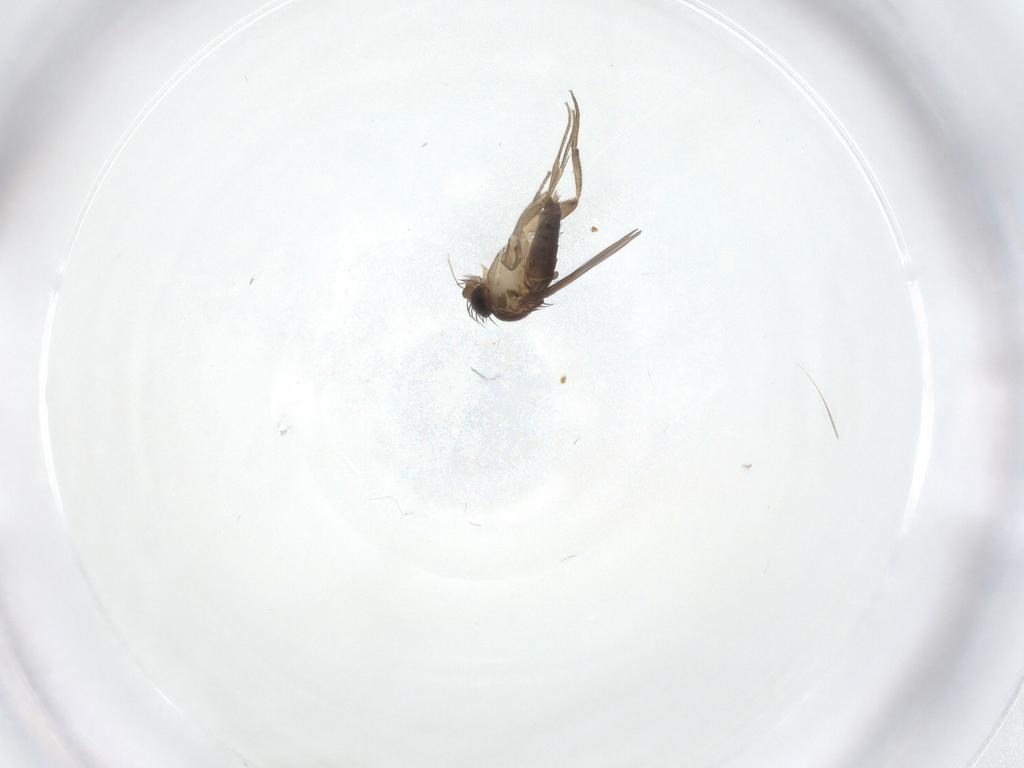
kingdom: Animalia
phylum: Arthropoda
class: Insecta
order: Diptera
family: Phoridae
